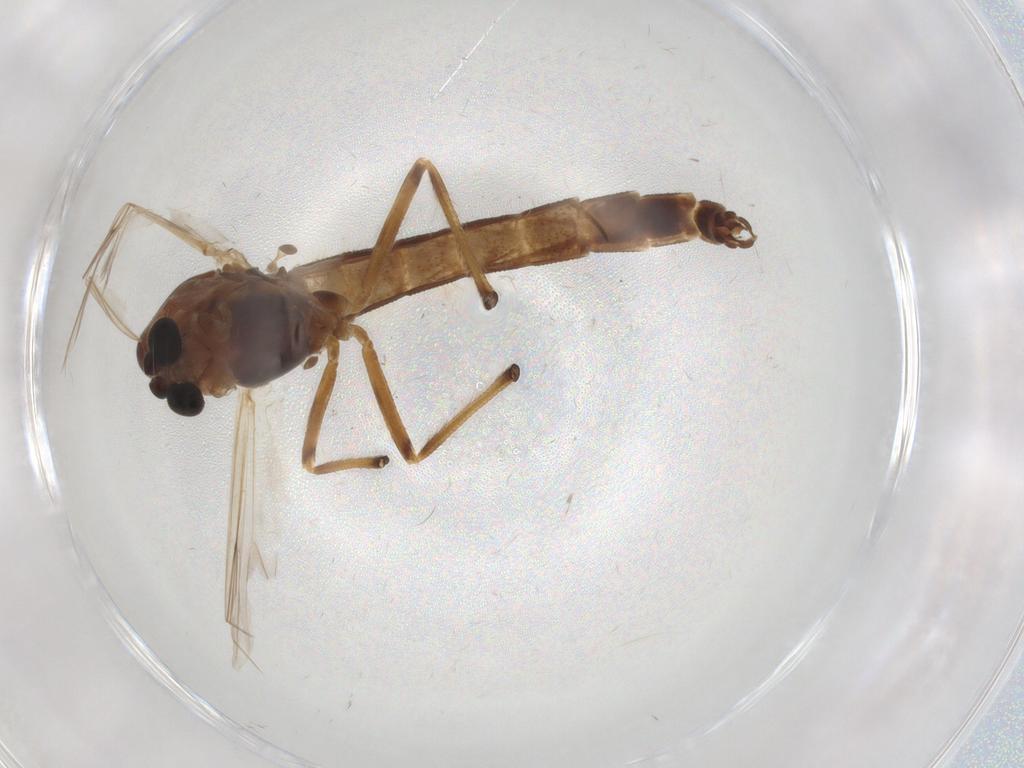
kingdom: Animalia
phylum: Arthropoda
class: Insecta
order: Diptera
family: Chironomidae
